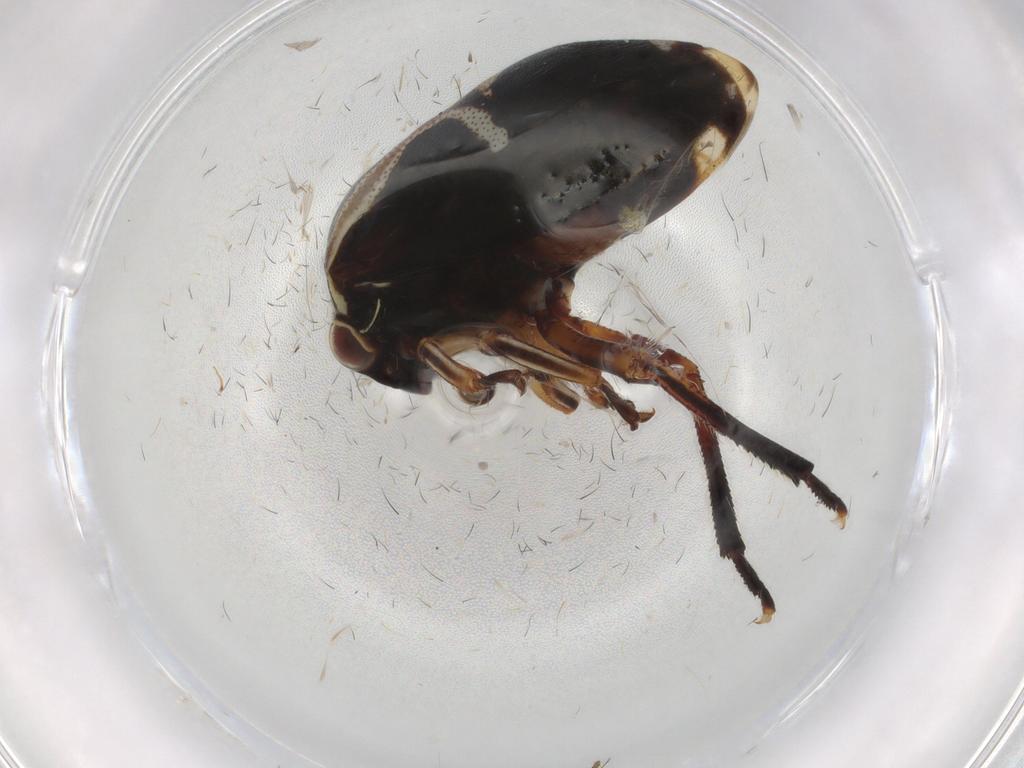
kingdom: Animalia
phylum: Arthropoda
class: Insecta
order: Hemiptera
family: Membracidae
